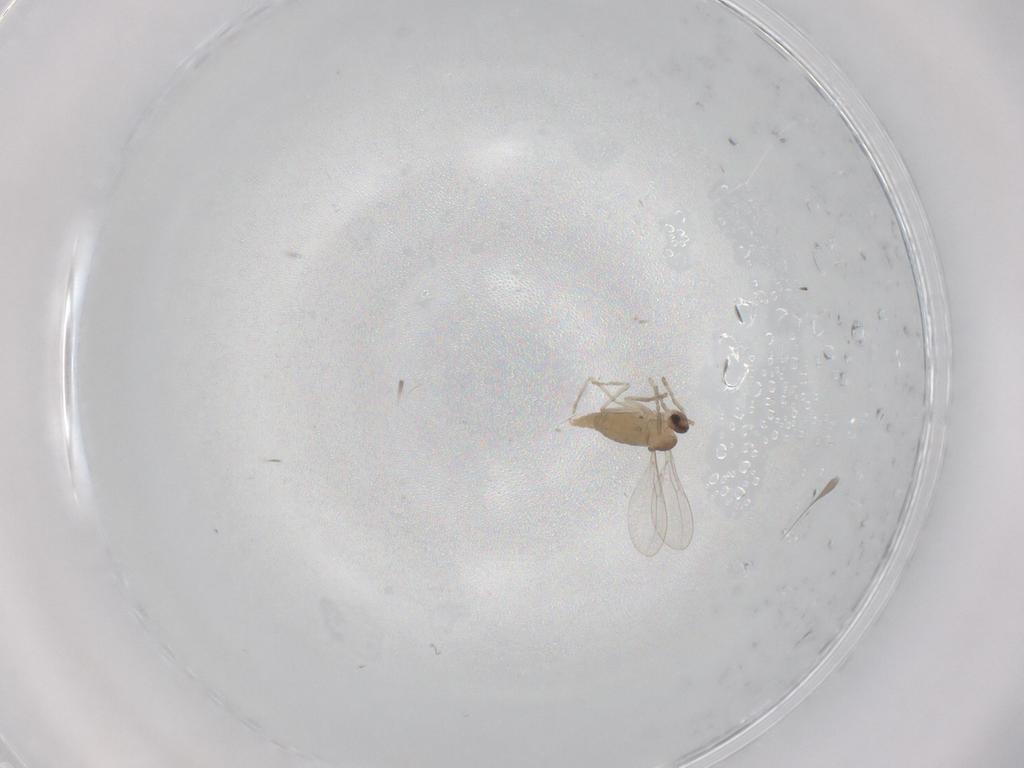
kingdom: Animalia
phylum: Arthropoda
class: Insecta
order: Diptera
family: Cecidomyiidae
